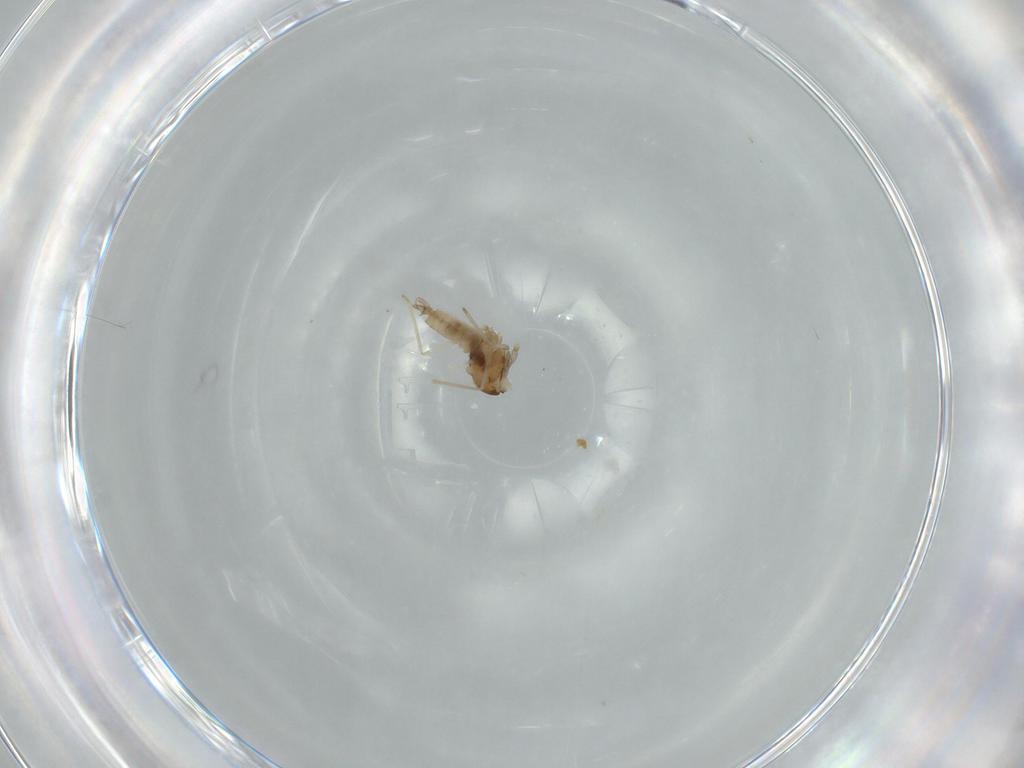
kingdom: Animalia
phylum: Arthropoda
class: Insecta
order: Diptera
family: Cecidomyiidae
